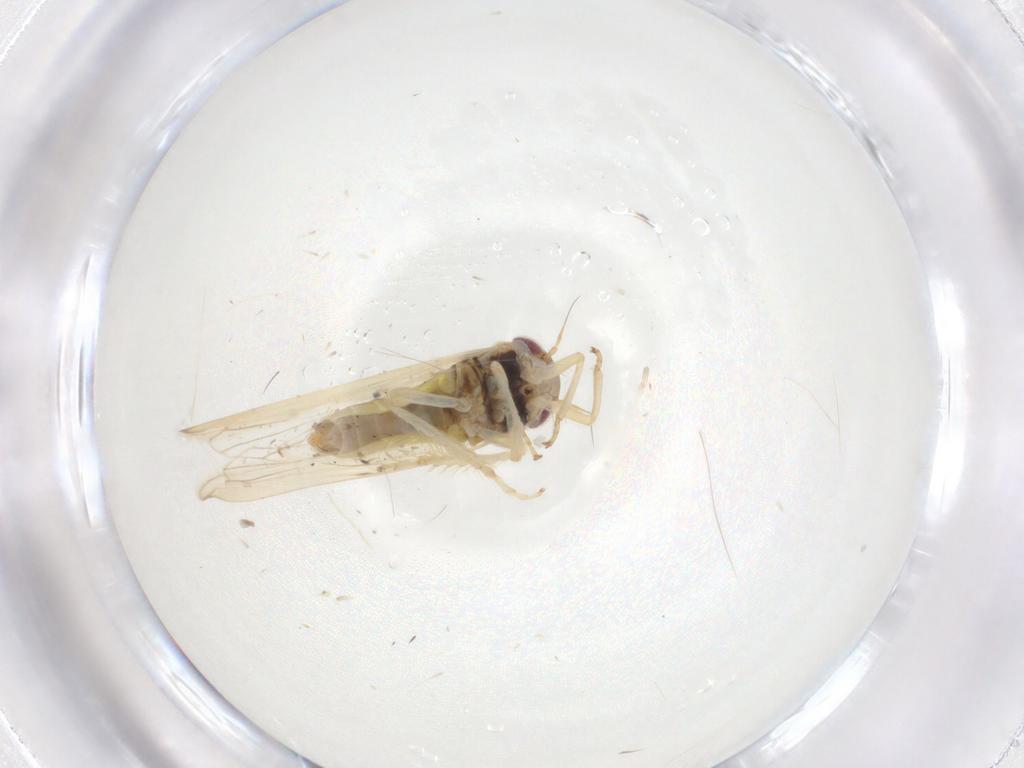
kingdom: Animalia
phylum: Arthropoda
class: Insecta
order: Hemiptera
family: Cicadellidae
